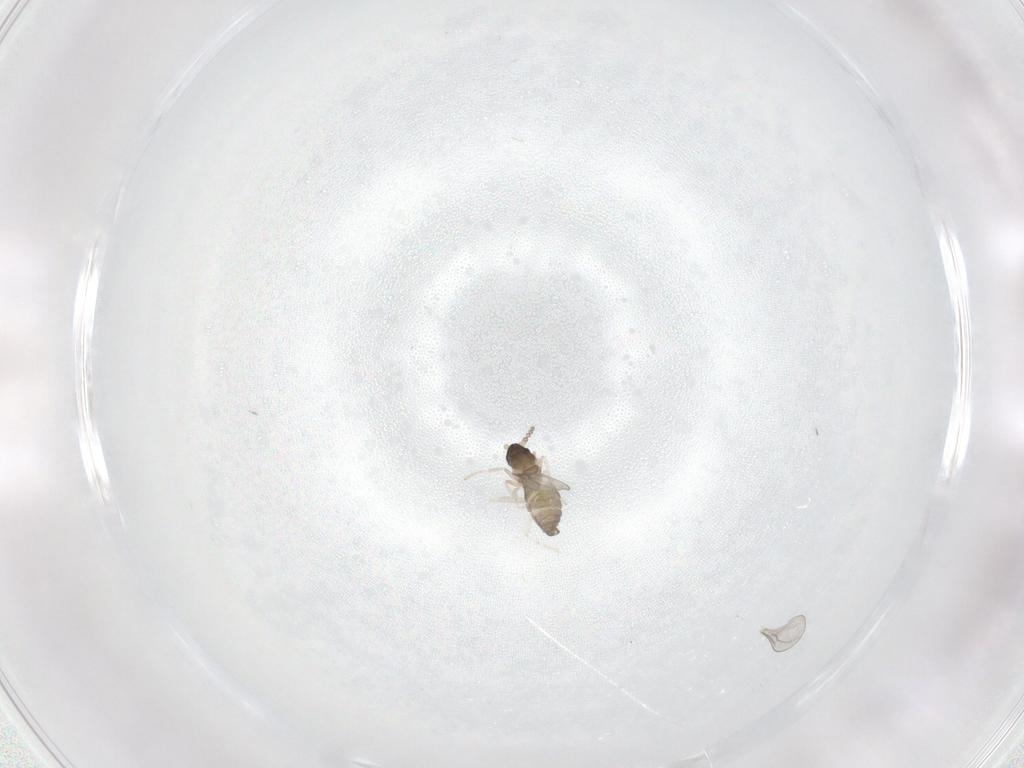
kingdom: Animalia
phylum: Arthropoda
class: Insecta
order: Diptera
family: Cecidomyiidae
